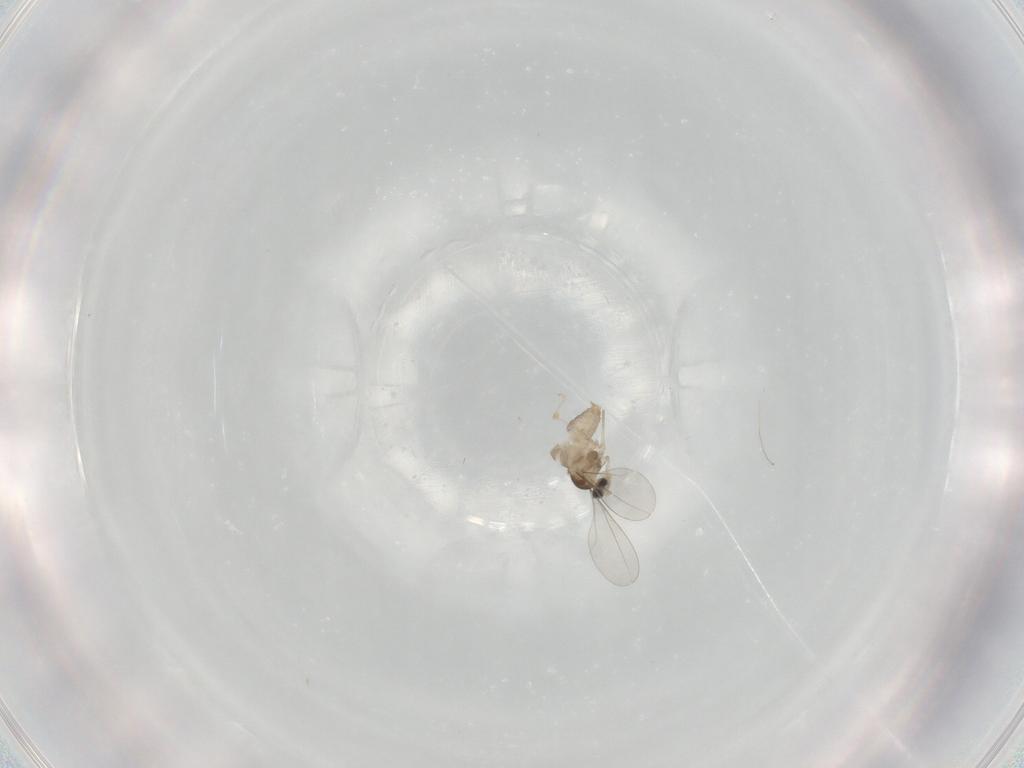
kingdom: Animalia
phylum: Arthropoda
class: Insecta
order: Diptera
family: Cecidomyiidae
